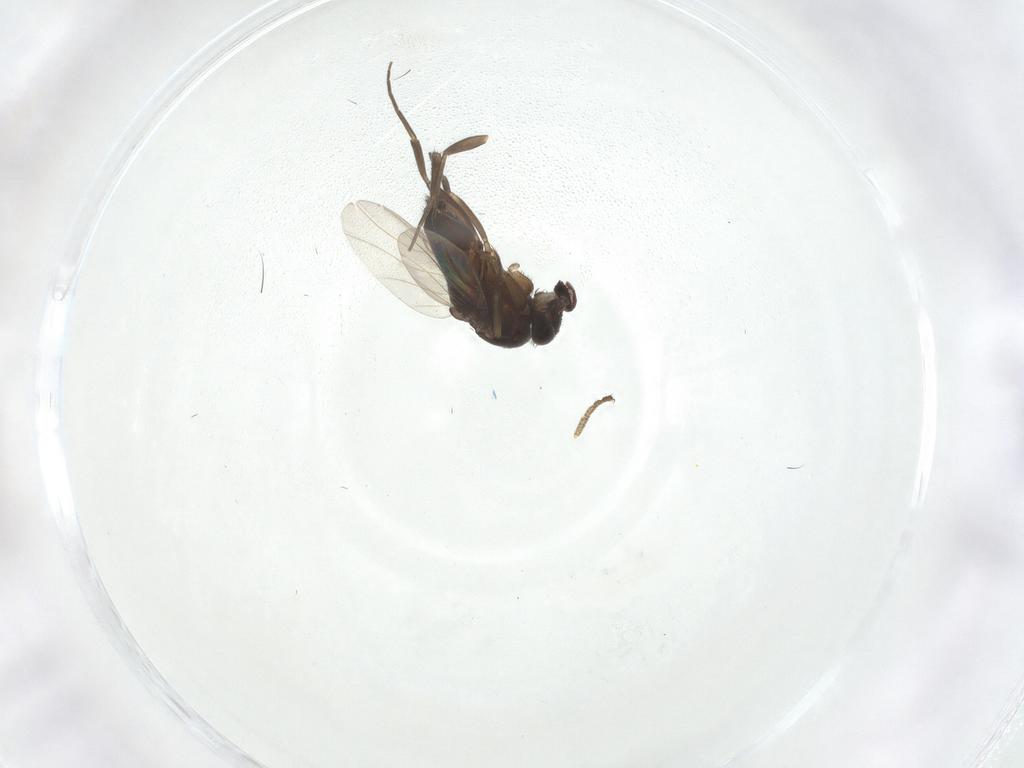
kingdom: Animalia
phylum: Arthropoda
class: Insecta
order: Diptera
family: Phoridae
